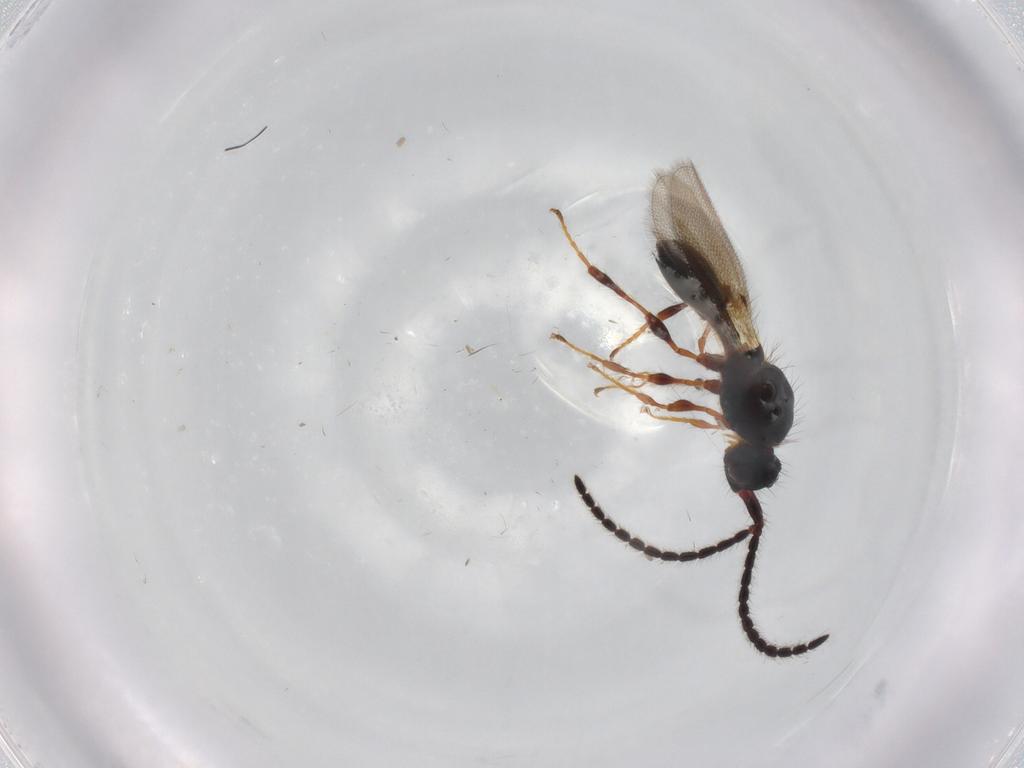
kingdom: Animalia
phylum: Arthropoda
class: Insecta
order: Hymenoptera
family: Diapriidae
